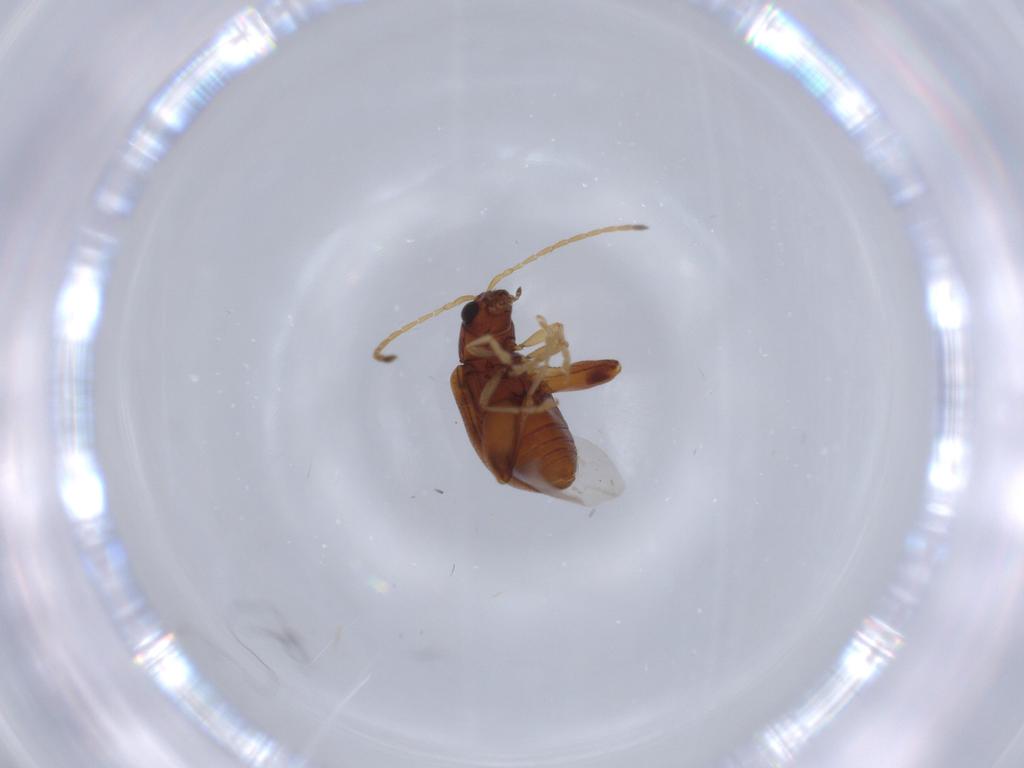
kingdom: Animalia
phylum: Arthropoda
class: Insecta
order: Coleoptera
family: Chrysomelidae
